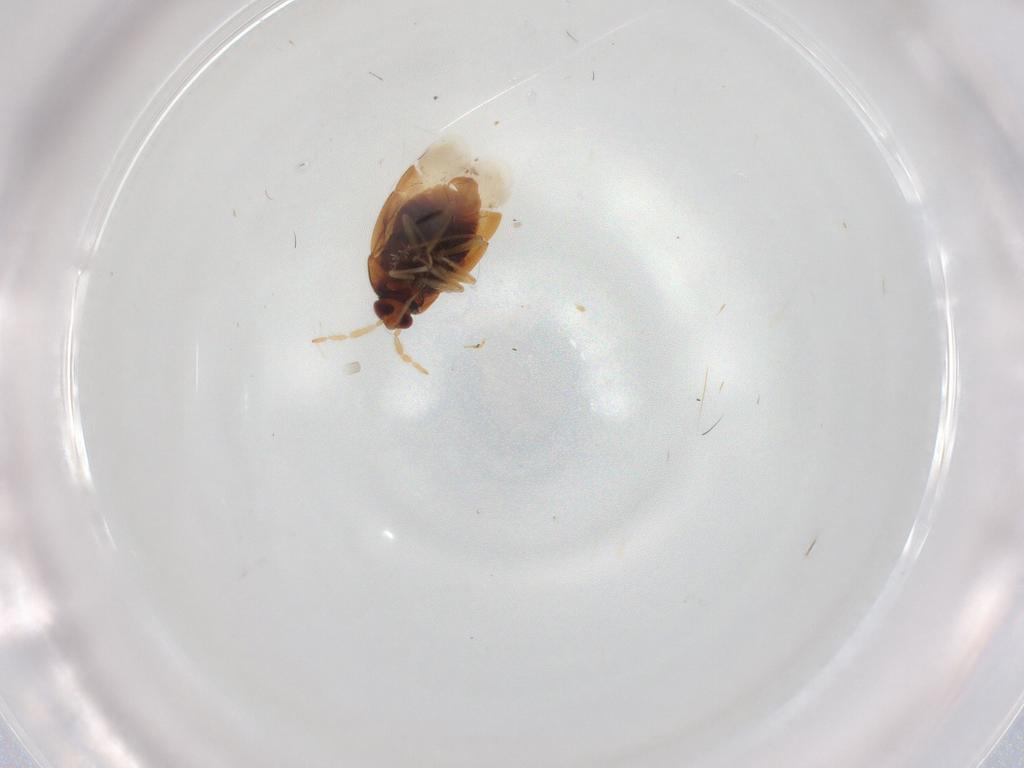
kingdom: Animalia
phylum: Arthropoda
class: Insecta
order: Hemiptera
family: Anthocoridae
